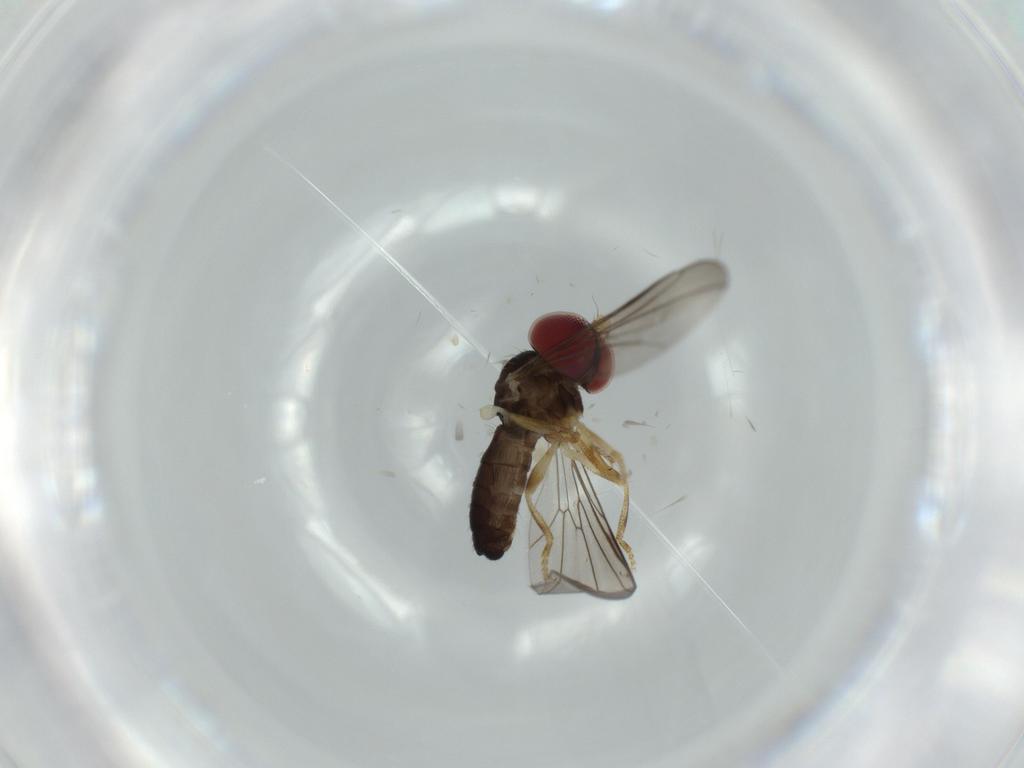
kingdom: Animalia
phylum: Arthropoda
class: Insecta
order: Diptera
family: Pipunculidae
